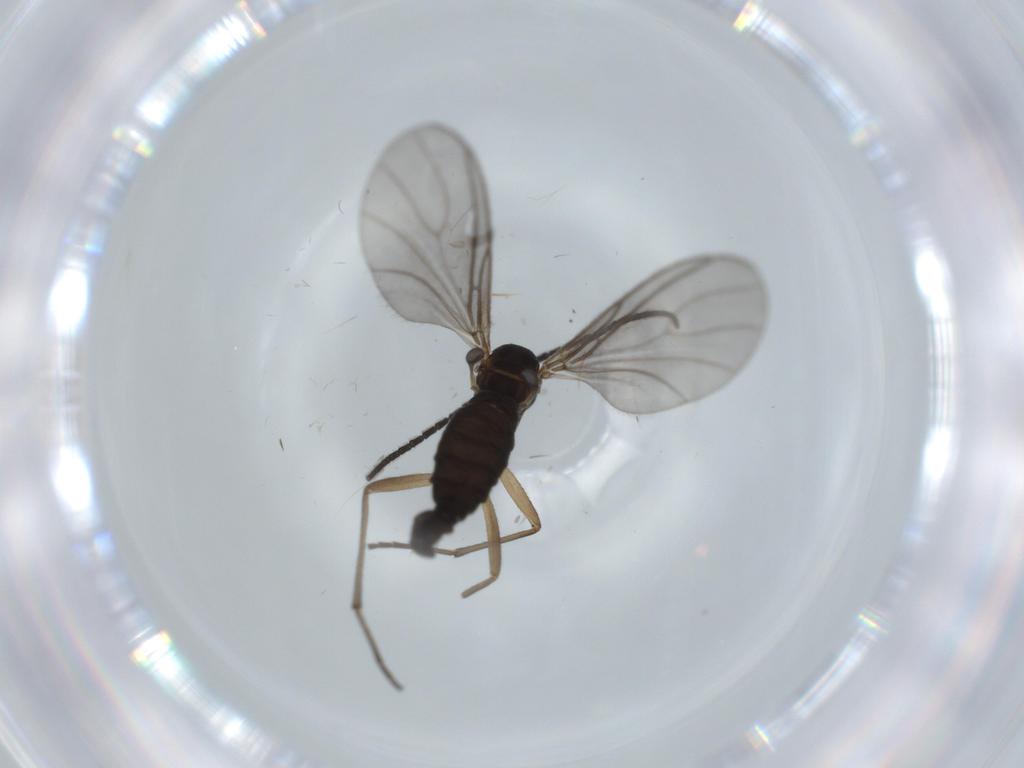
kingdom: Animalia
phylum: Arthropoda
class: Insecta
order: Diptera
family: Sciaridae
